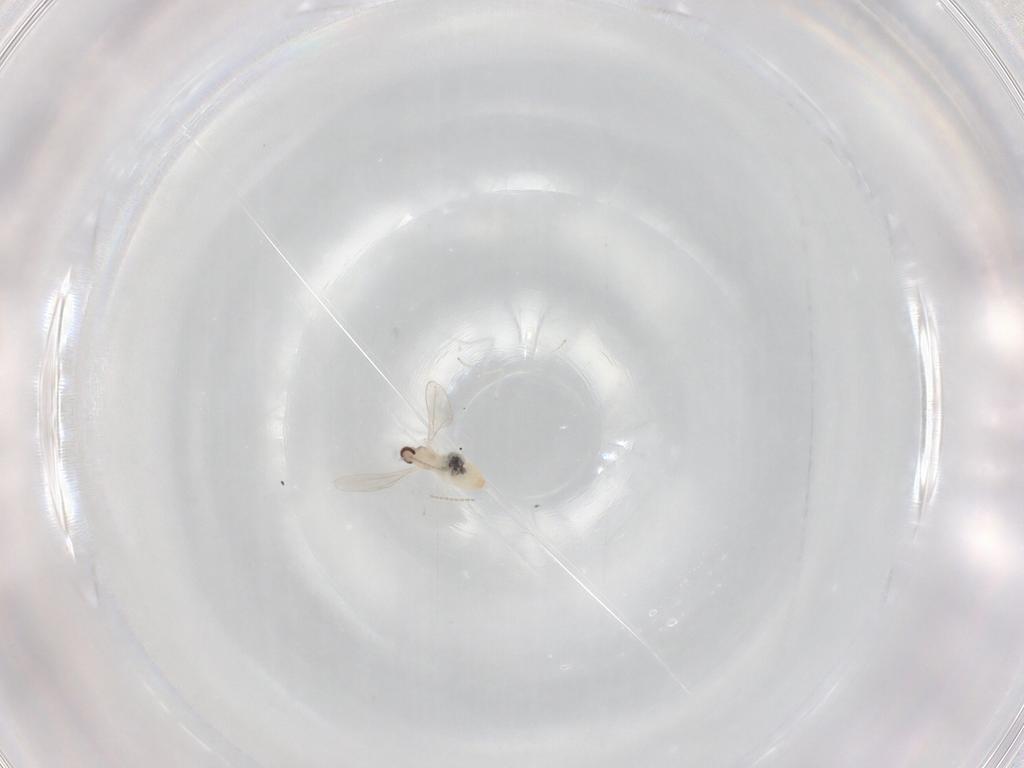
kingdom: Animalia
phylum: Arthropoda
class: Insecta
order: Diptera
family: Cecidomyiidae
